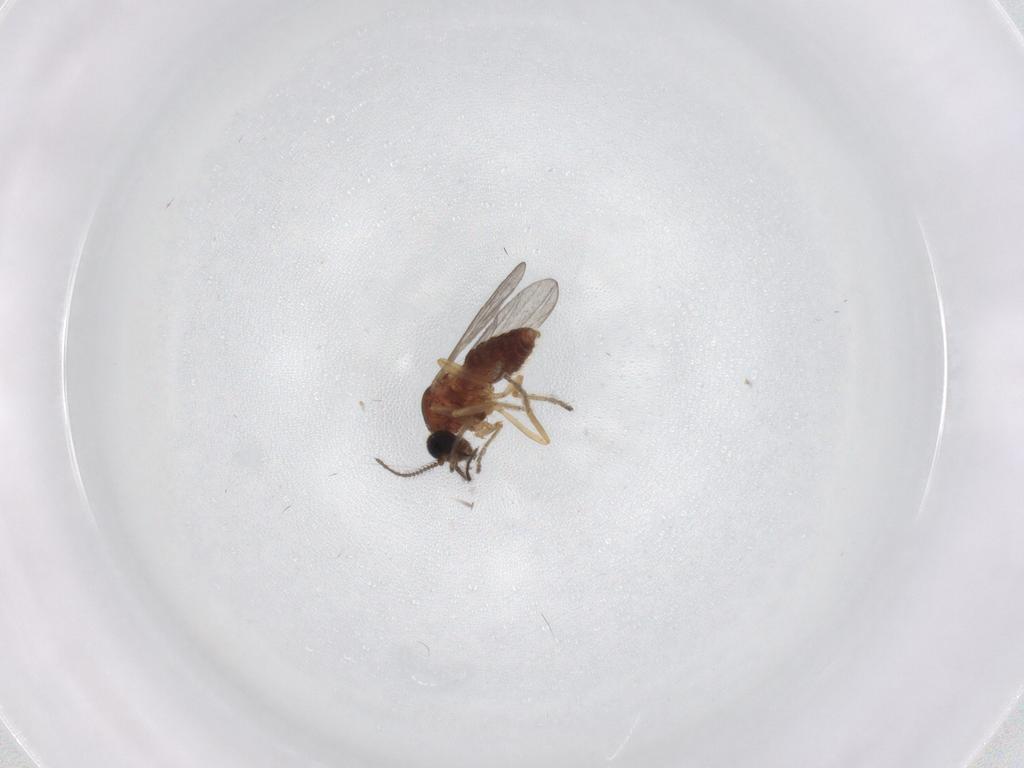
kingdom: Animalia
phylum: Arthropoda
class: Insecta
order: Diptera
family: Ceratopogonidae
